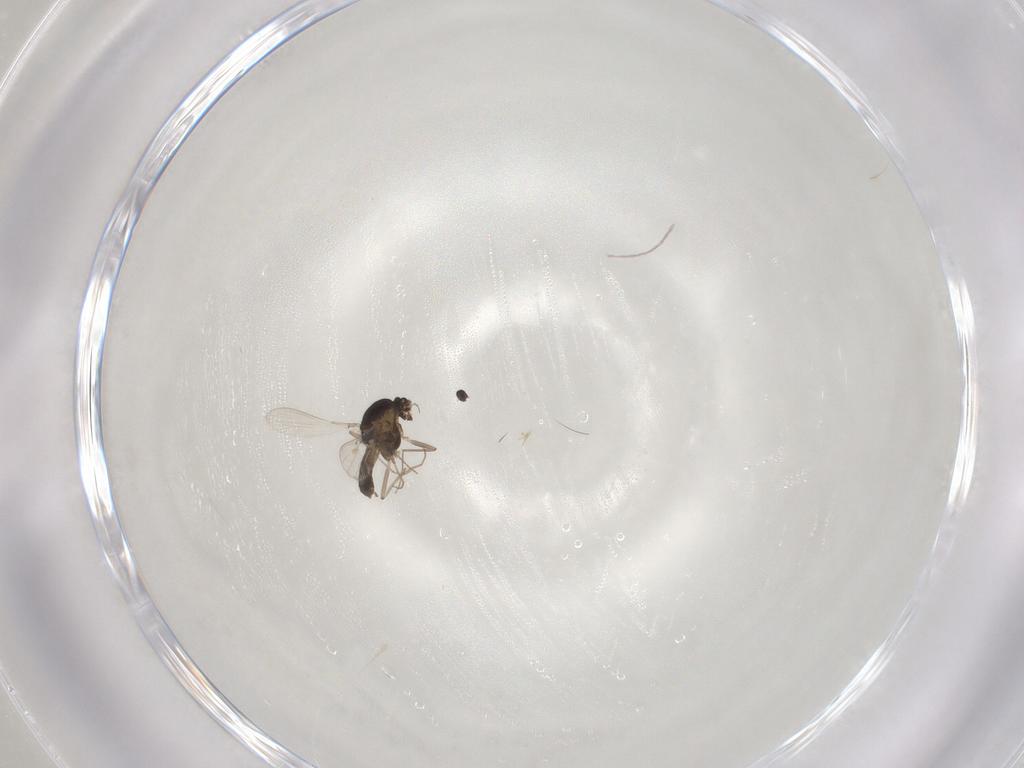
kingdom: Animalia
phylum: Arthropoda
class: Insecta
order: Diptera
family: Chironomidae
